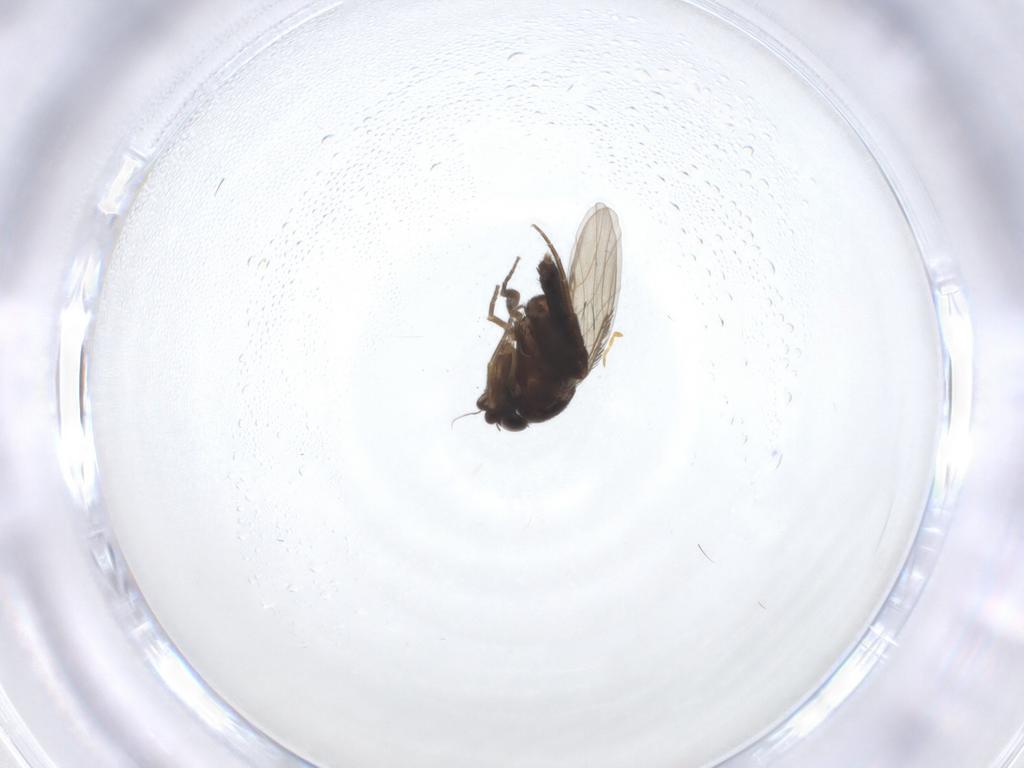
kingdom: Animalia
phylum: Arthropoda
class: Insecta
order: Diptera
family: Phoridae
